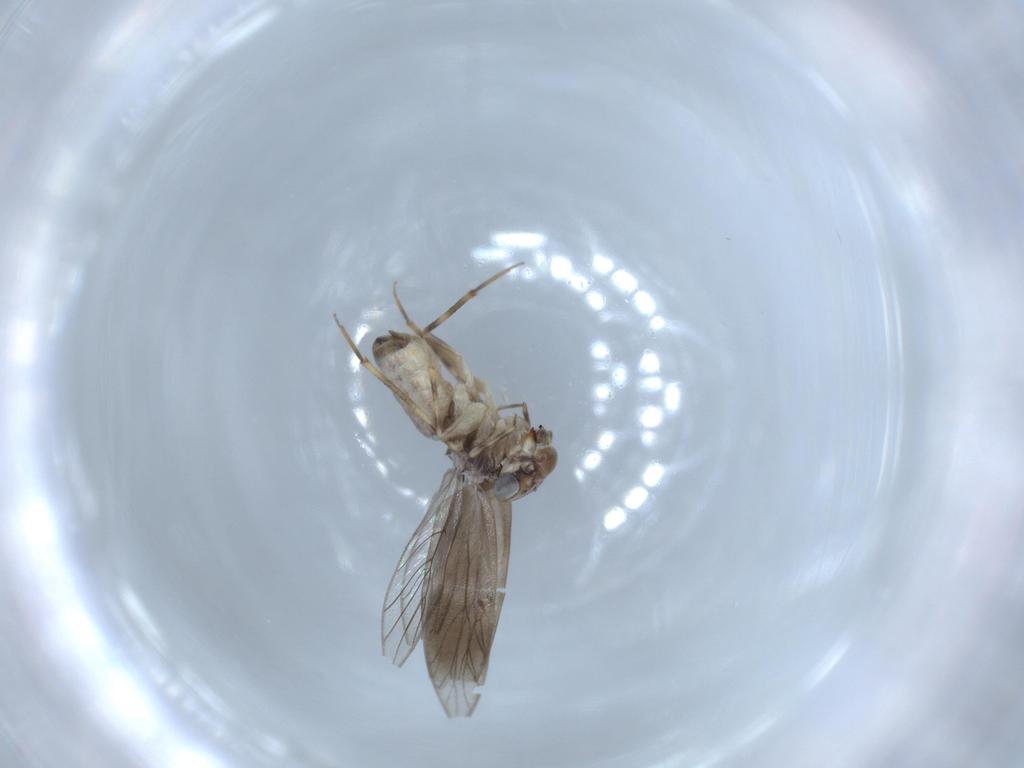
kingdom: Animalia
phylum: Arthropoda
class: Insecta
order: Psocodea
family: Lepidopsocidae
